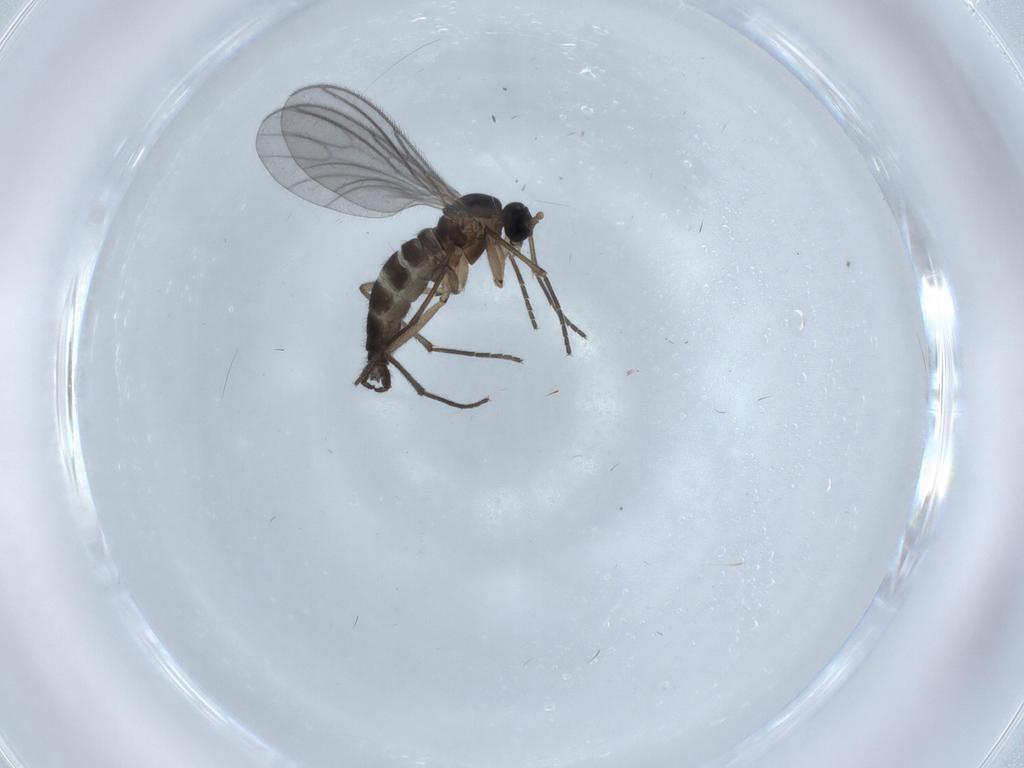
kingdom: Animalia
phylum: Arthropoda
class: Insecta
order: Diptera
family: Sciaridae
